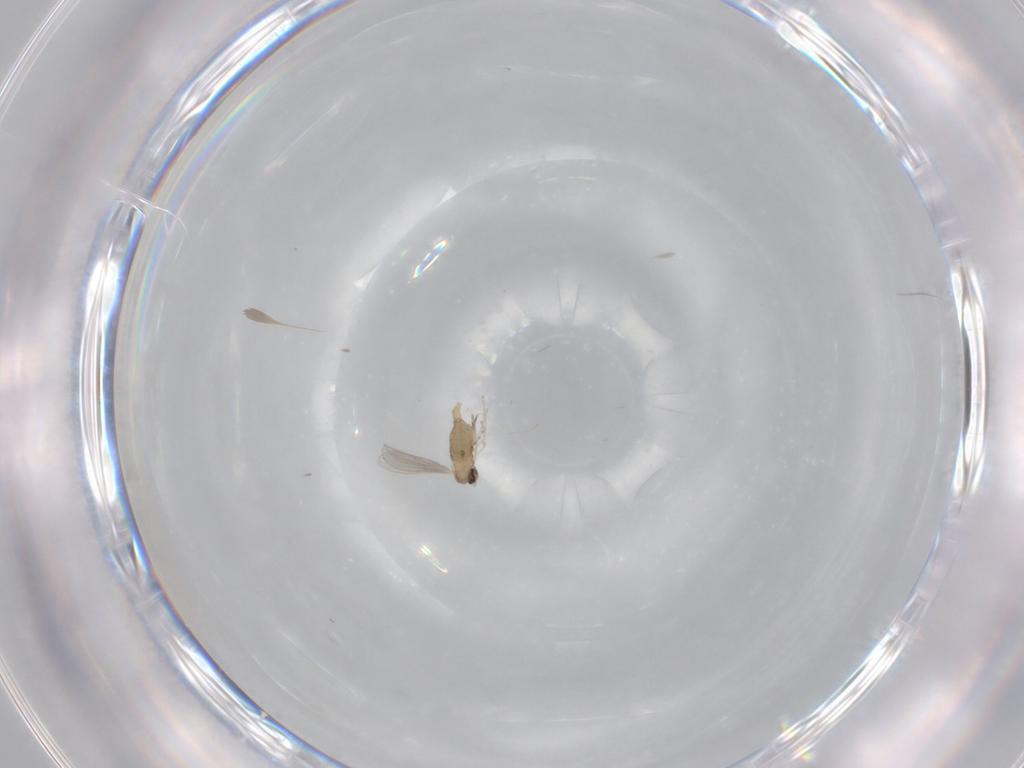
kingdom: Animalia
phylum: Arthropoda
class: Insecta
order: Diptera
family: Cecidomyiidae
